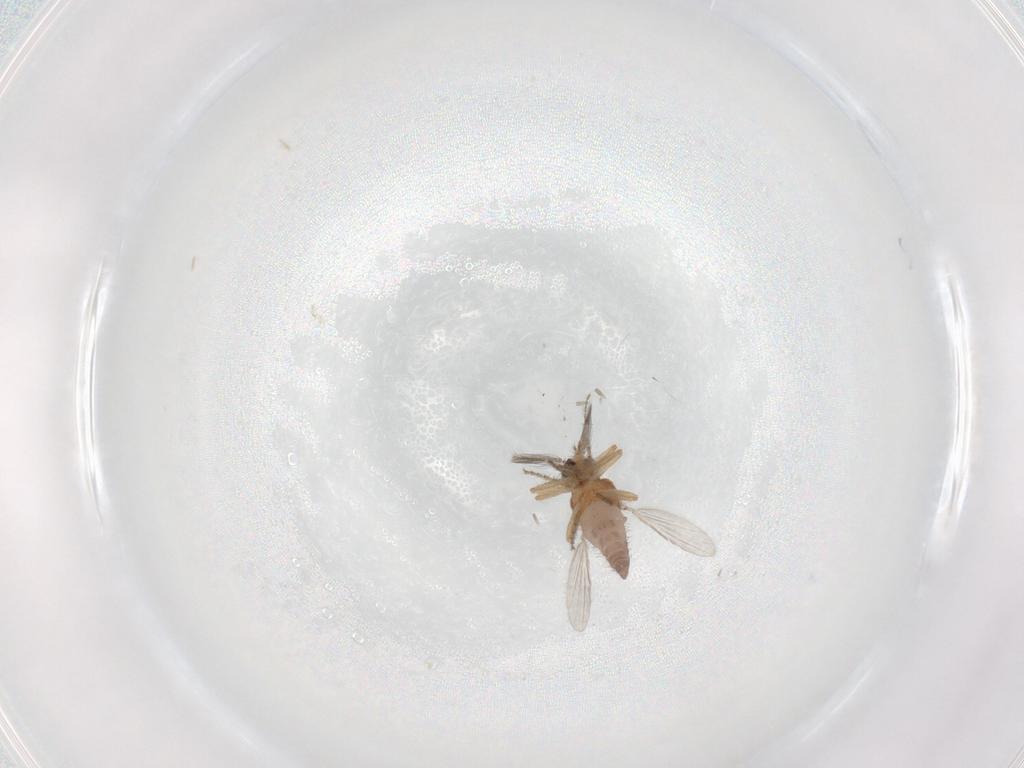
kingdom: Animalia
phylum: Arthropoda
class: Insecta
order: Diptera
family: Ceratopogonidae
